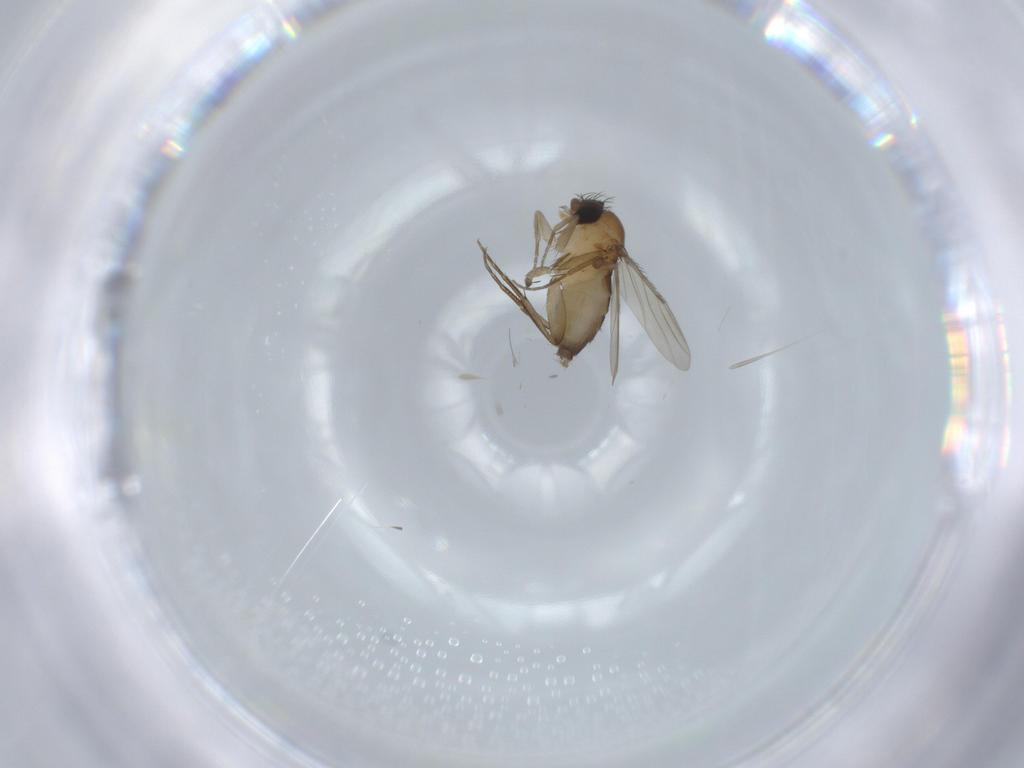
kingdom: Animalia
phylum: Arthropoda
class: Insecta
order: Diptera
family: Phoridae
